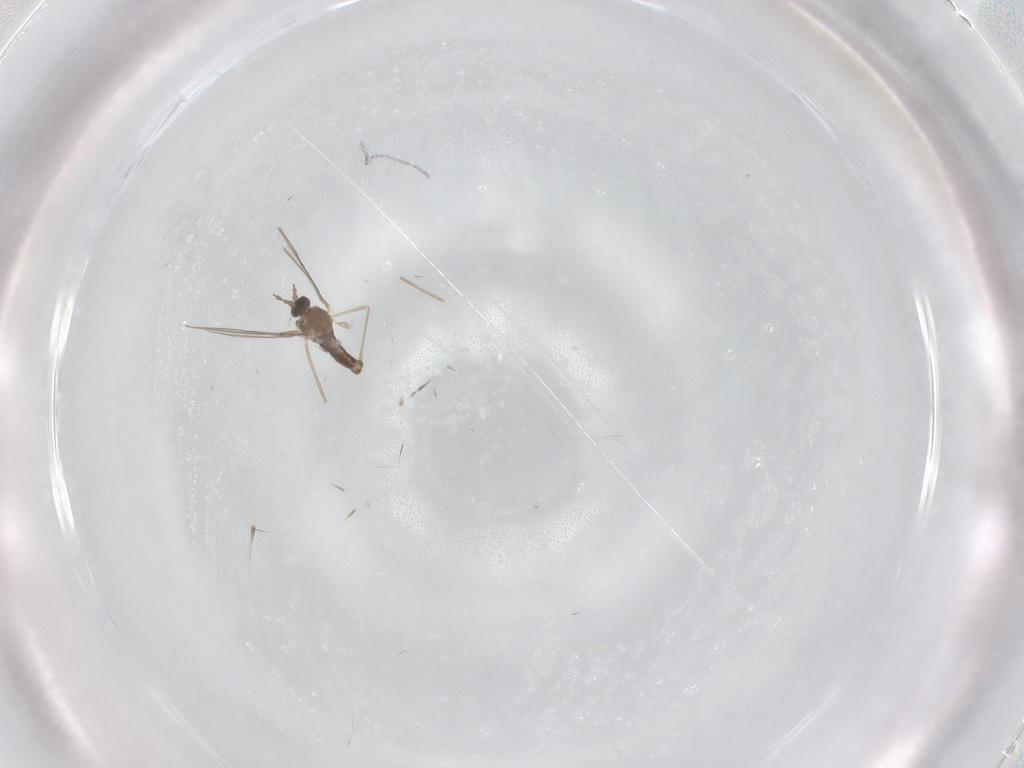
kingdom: Animalia
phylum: Arthropoda
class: Insecta
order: Diptera
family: Cecidomyiidae
